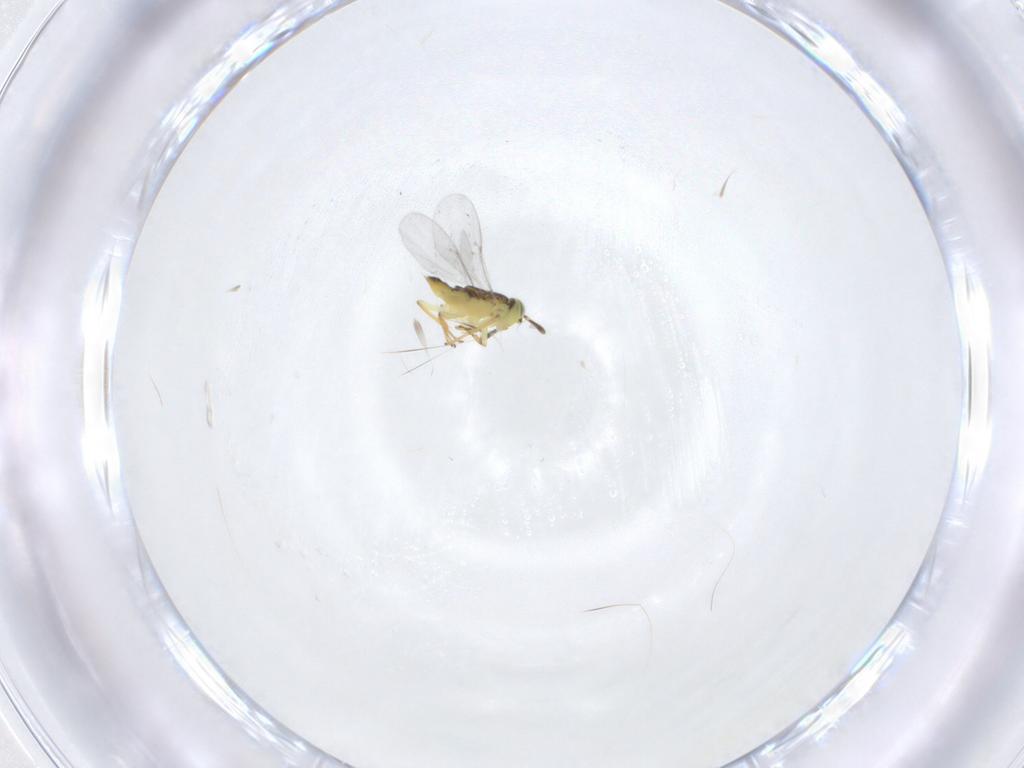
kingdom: Animalia
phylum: Arthropoda
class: Insecta
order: Hymenoptera
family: Encyrtidae
